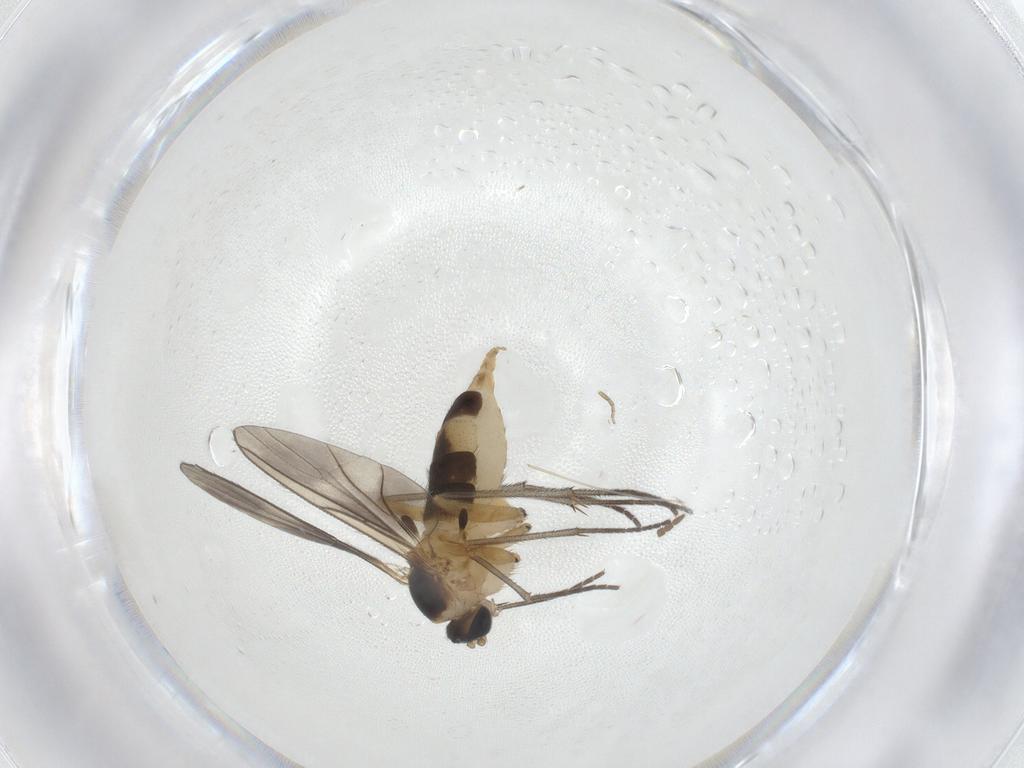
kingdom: Animalia
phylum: Arthropoda
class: Insecta
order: Diptera
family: Sciaridae
